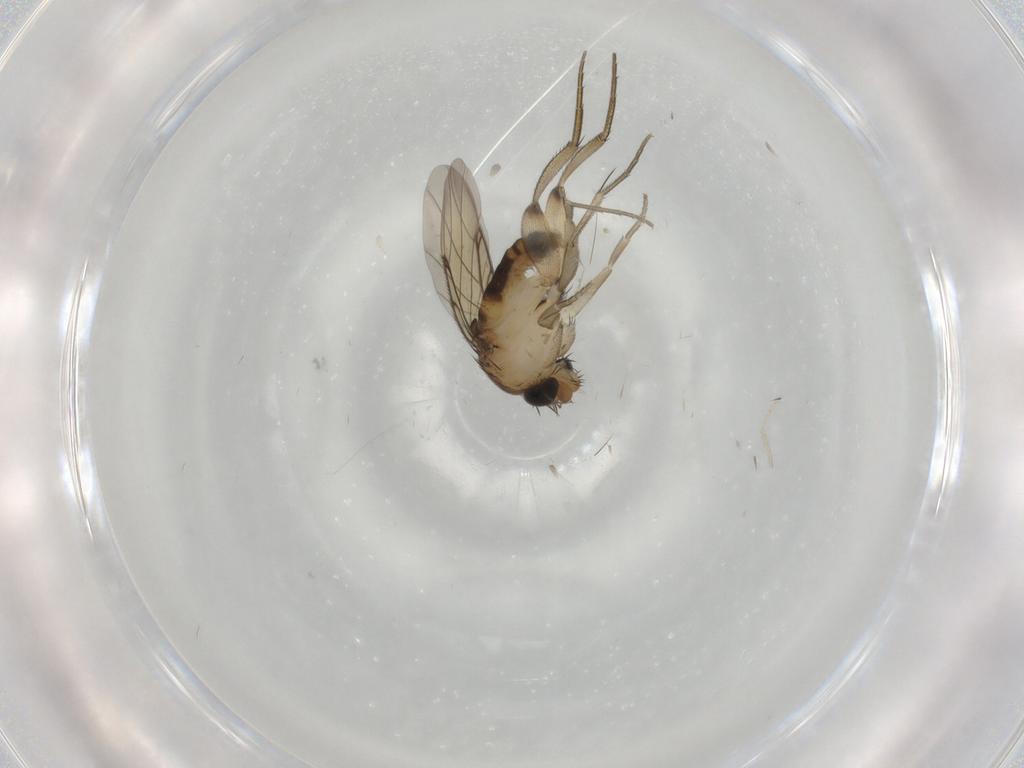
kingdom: Animalia
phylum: Arthropoda
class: Insecta
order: Diptera
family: Phoridae
